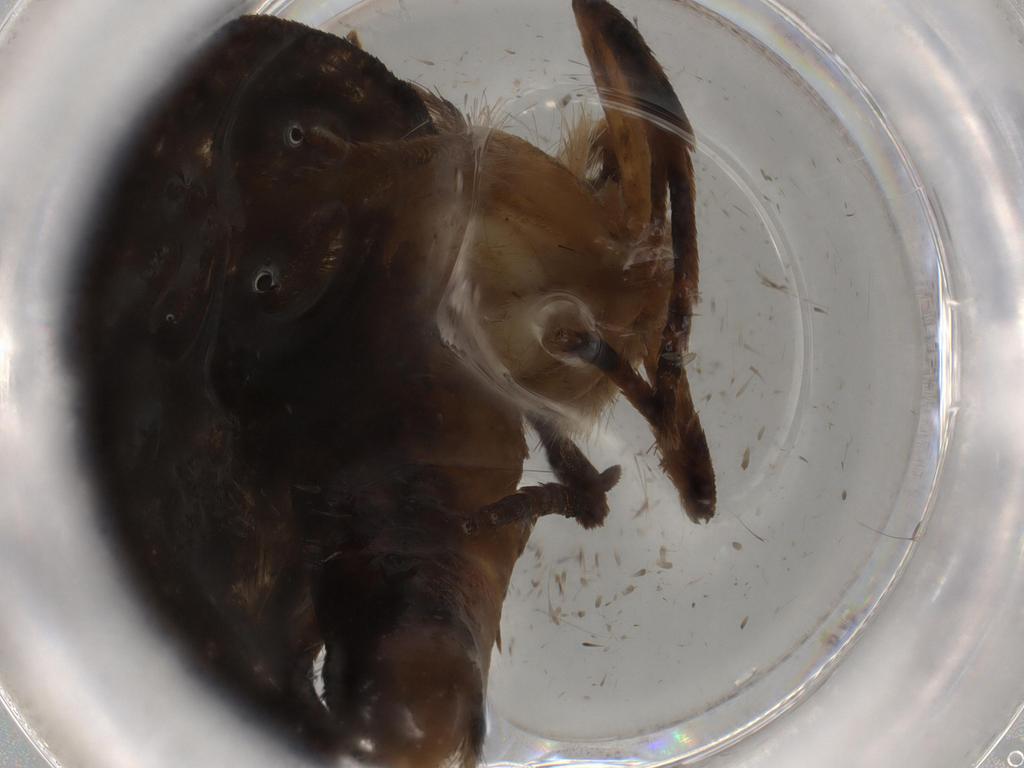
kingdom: Animalia
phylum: Arthropoda
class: Insecta
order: Lepidoptera
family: Tineidae
